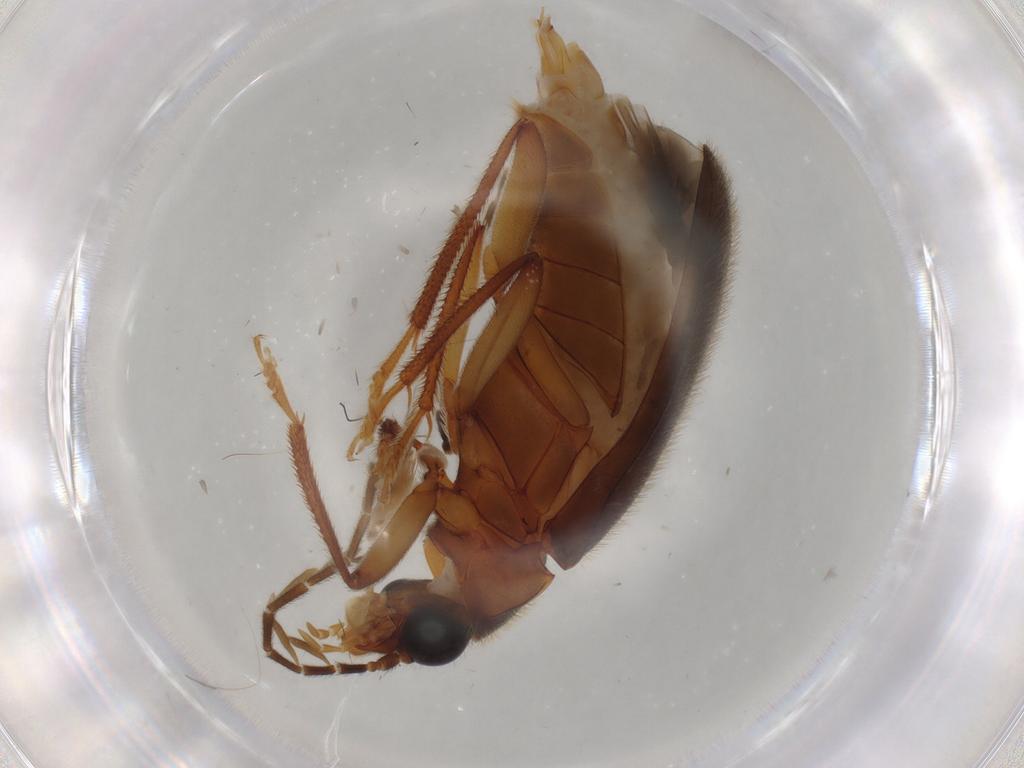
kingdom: Animalia
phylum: Arthropoda
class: Insecta
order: Coleoptera
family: Ptilodactylidae
